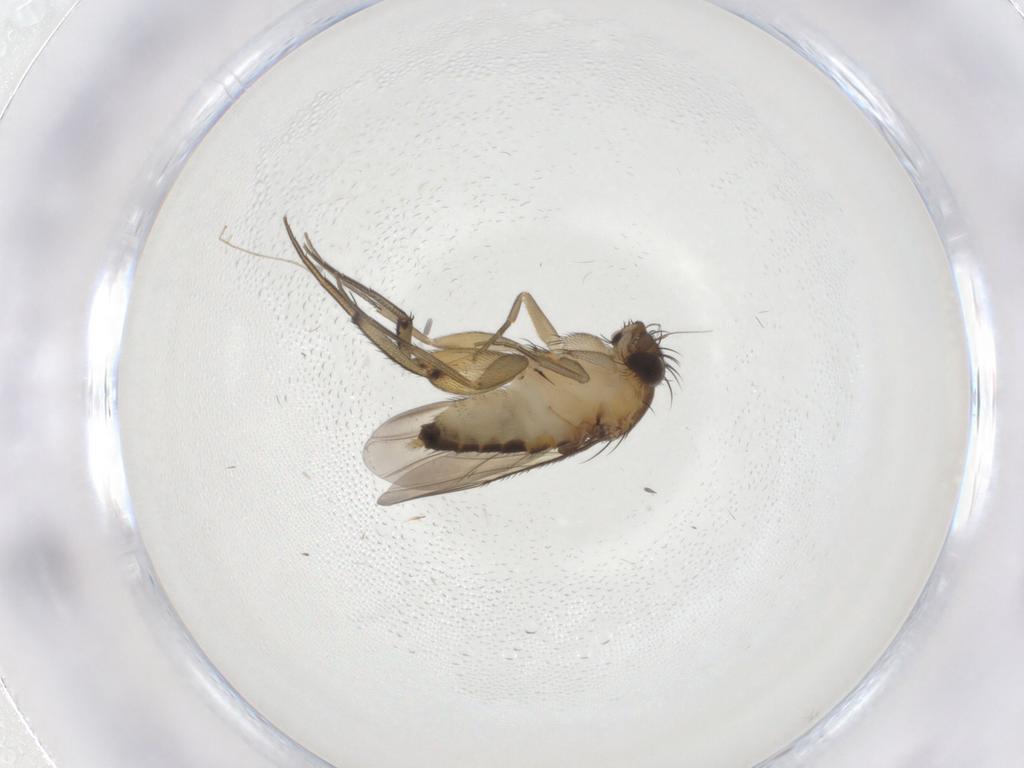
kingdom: Animalia
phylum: Arthropoda
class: Insecta
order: Diptera
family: Phoridae
